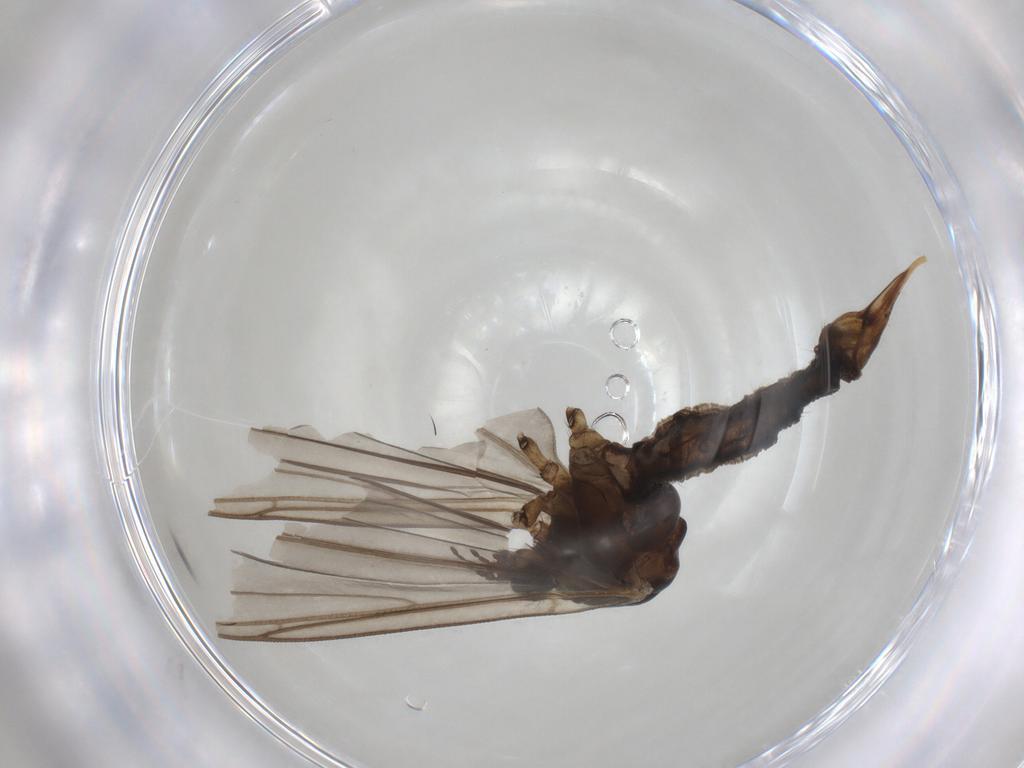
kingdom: Animalia
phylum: Arthropoda
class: Insecta
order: Diptera
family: Limoniidae
